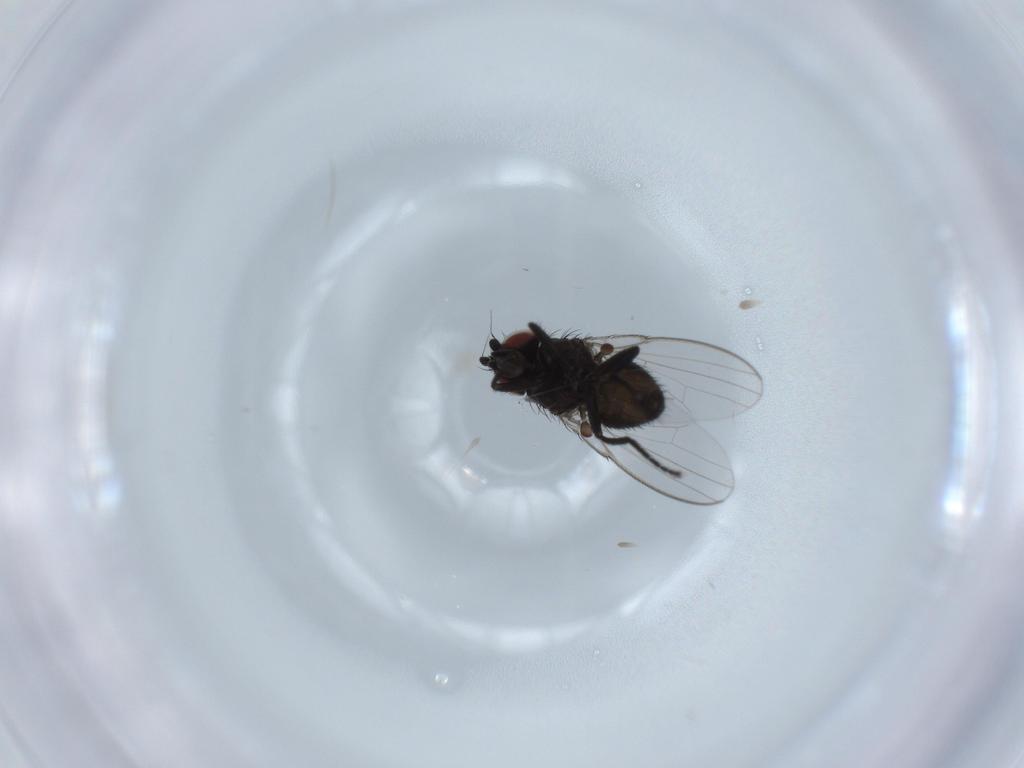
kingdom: Animalia
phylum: Arthropoda
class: Insecta
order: Diptera
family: Milichiidae
